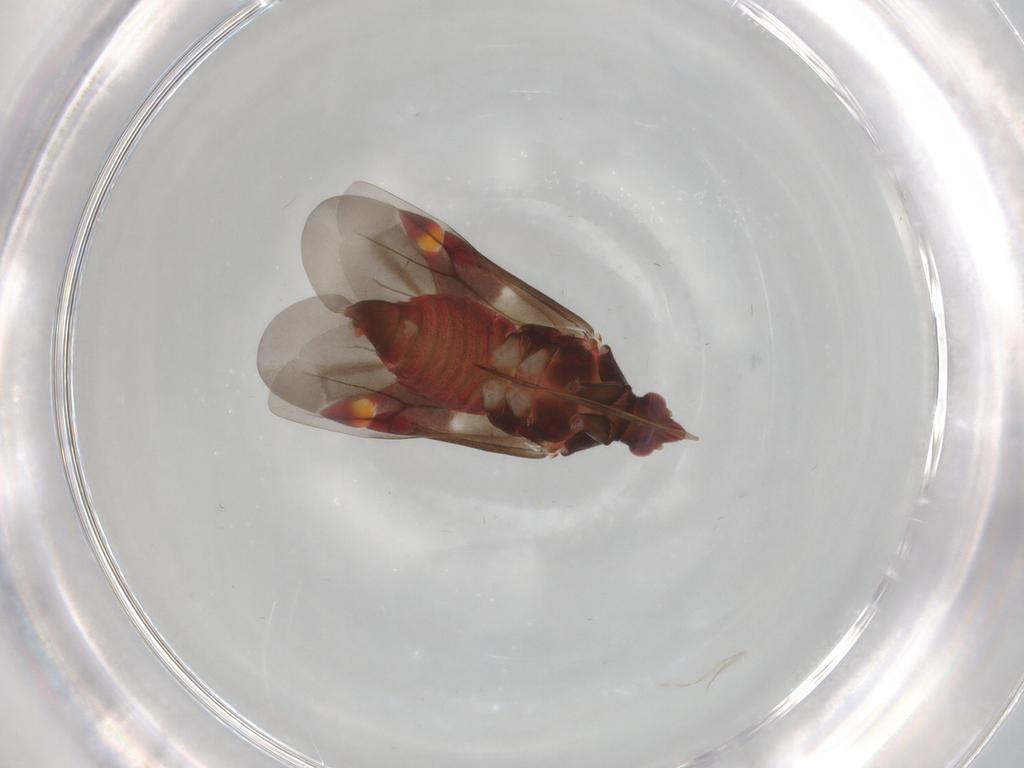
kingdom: Animalia
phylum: Arthropoda
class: Insecta
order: Hemiptera
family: Miridae
